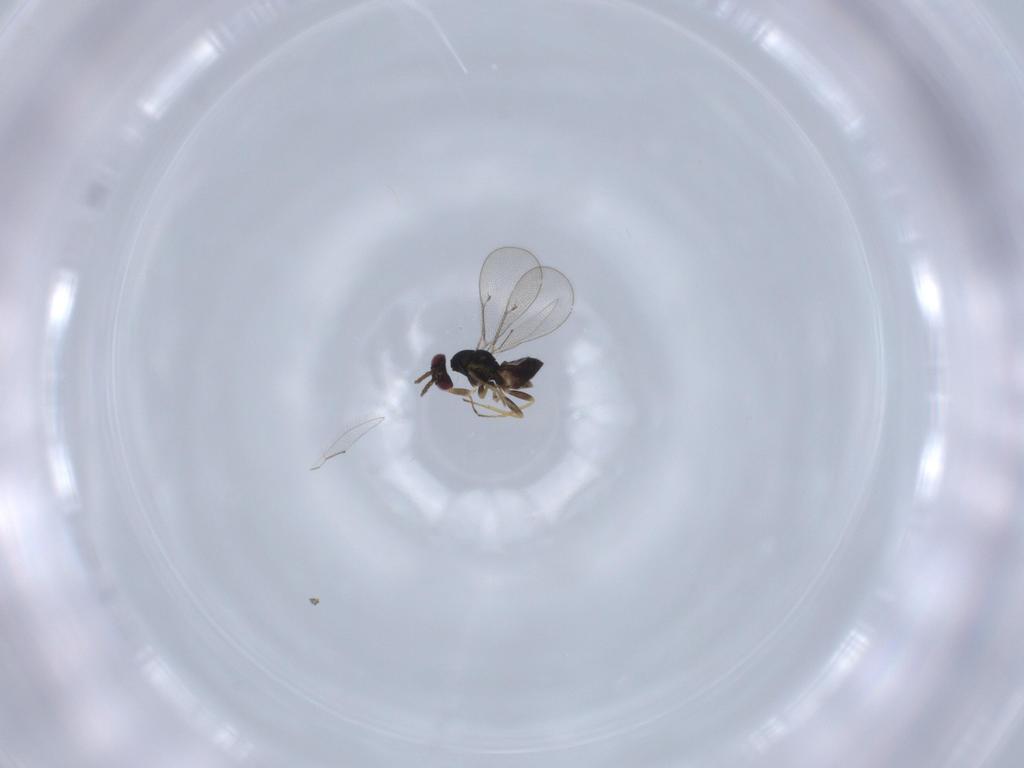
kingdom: Animalia
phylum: Arthropoda
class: Insecta
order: Hymenoptera
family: Eulophidae
